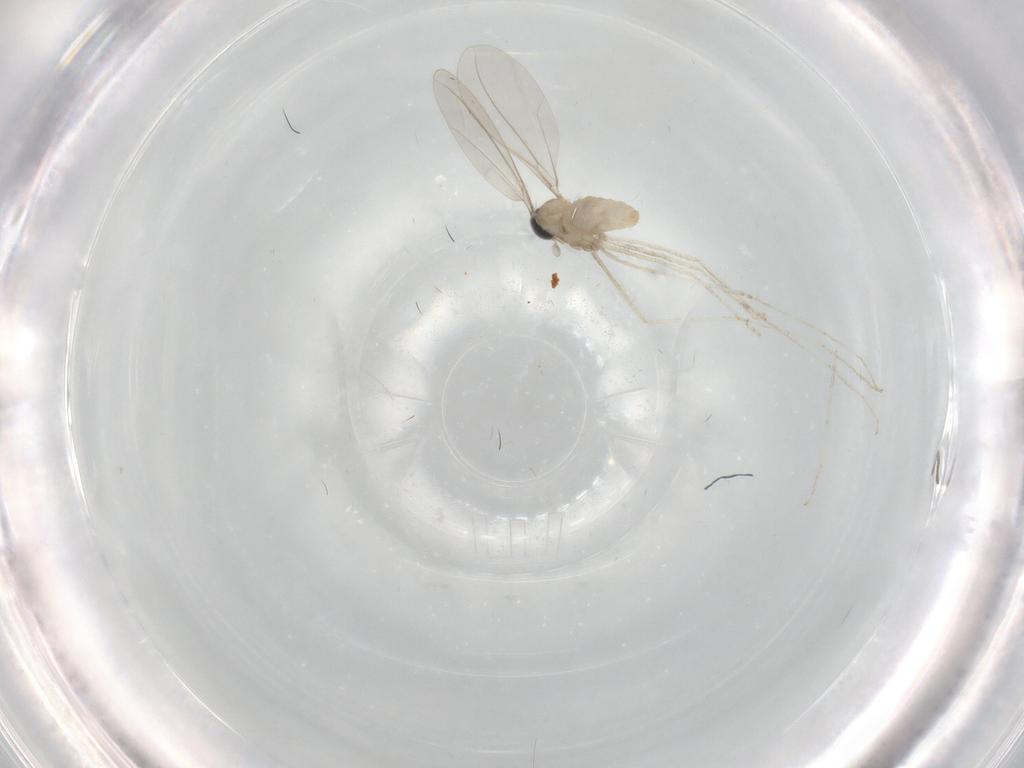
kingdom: Animalia
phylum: Arthropoda
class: Insecta
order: Diptera
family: Cecidomyiidae
